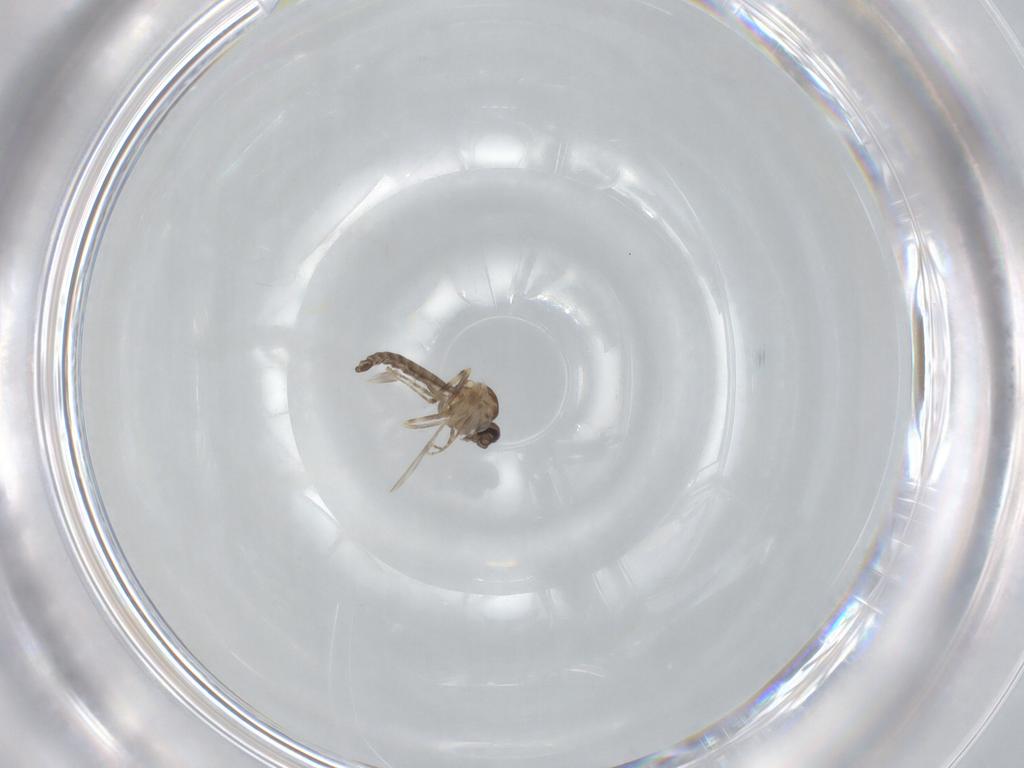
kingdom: Animalia
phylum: Arthropoda
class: Insecta
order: Diptera
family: Ceratopogonidae
